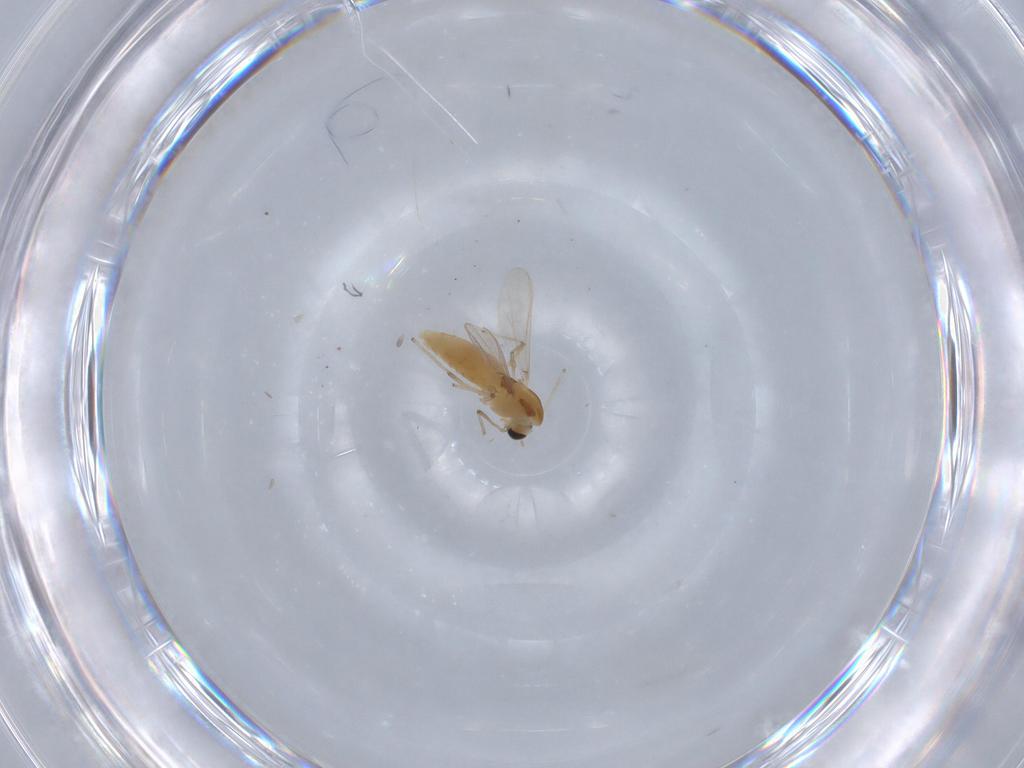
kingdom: Animalia
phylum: Arthropoda
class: Insecta
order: Diptera
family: Chironomidae
